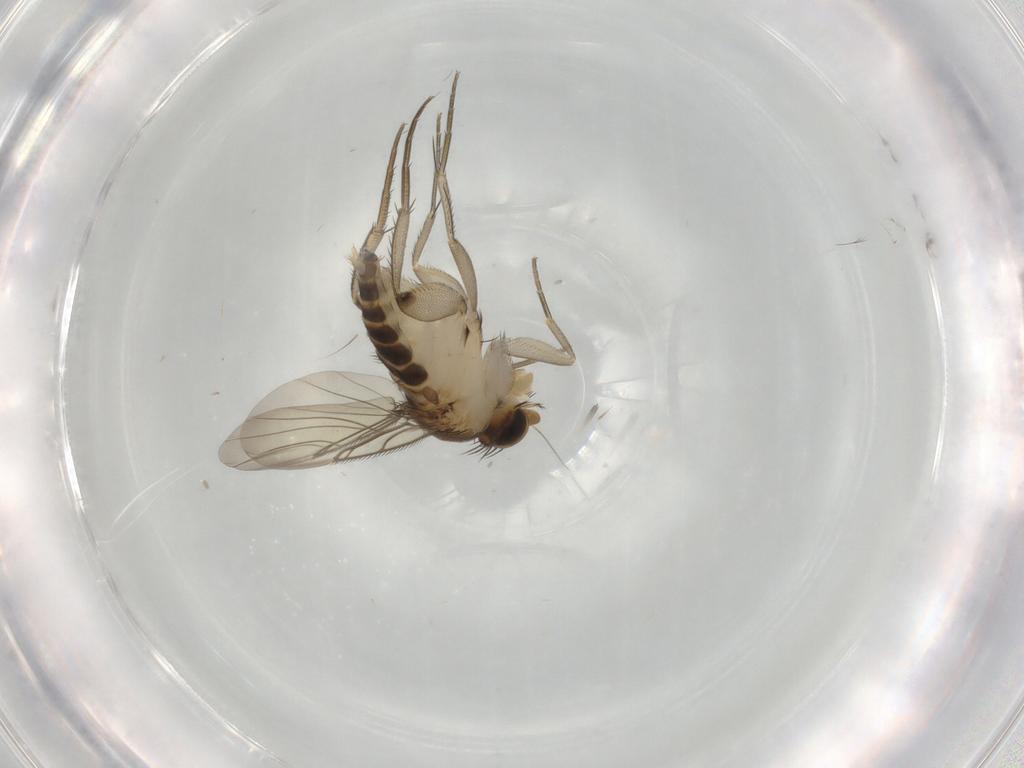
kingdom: Animalia
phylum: Arthropoda
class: Insecta
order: Diptera
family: Phoridae
